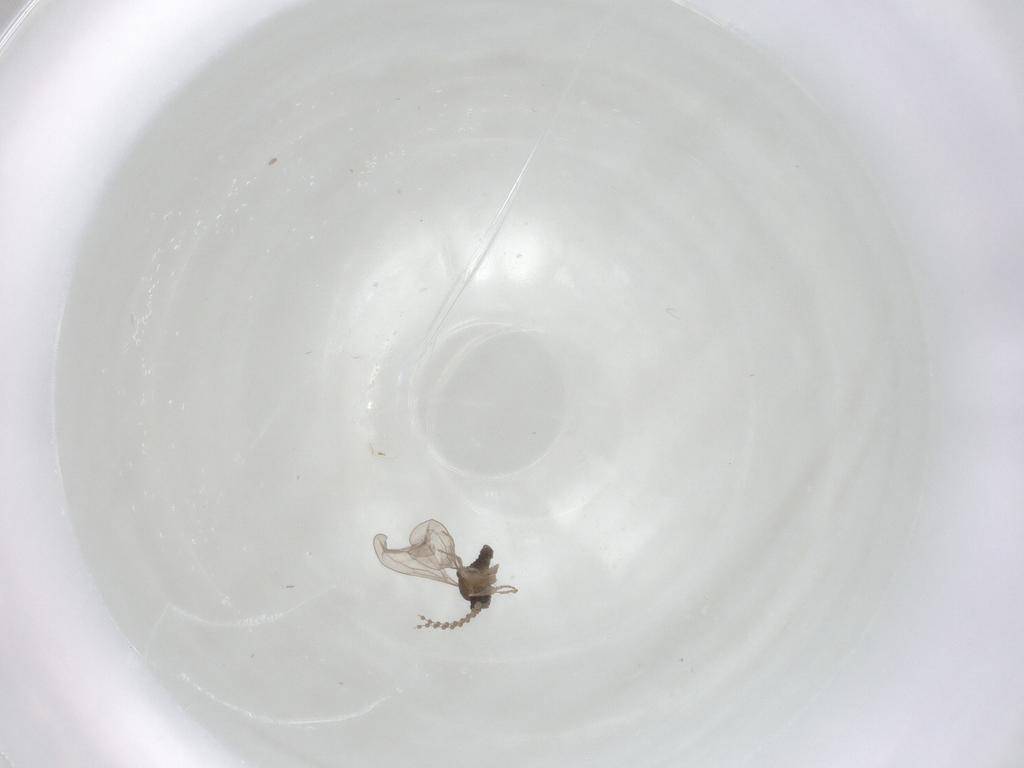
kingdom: Animalia
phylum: Arthropoda
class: Insecta
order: Diptera
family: Cecidomyiidae
